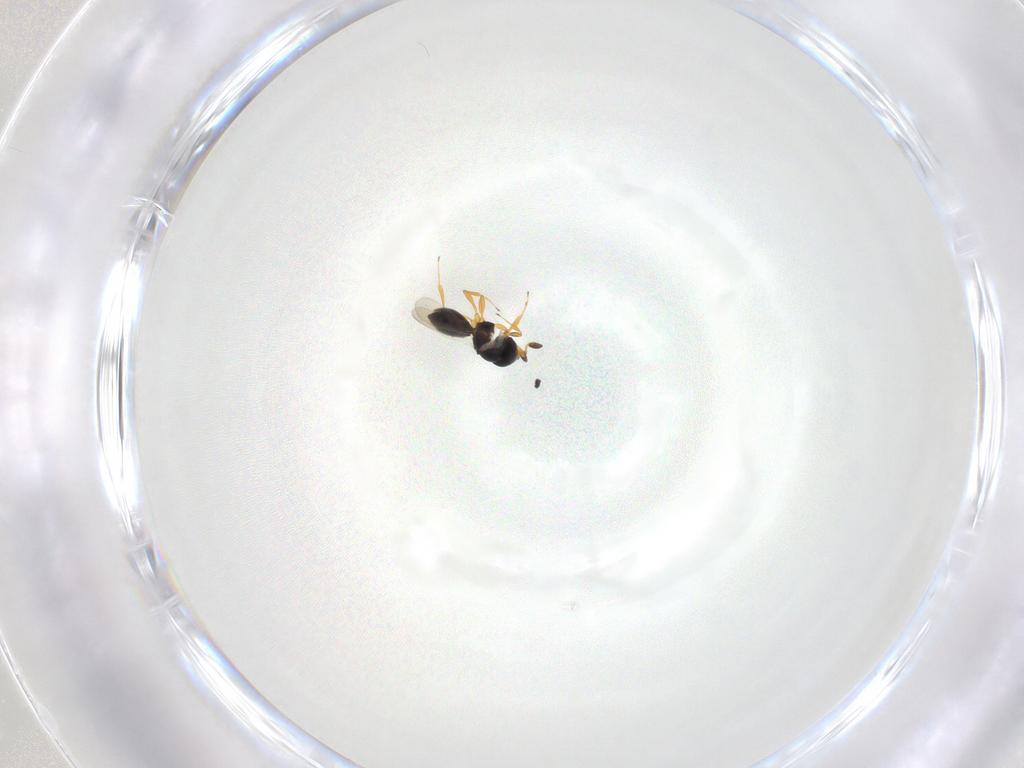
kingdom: Animalia
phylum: Arthropoda
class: Insecta
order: Hymenoptera
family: Platygastridae
